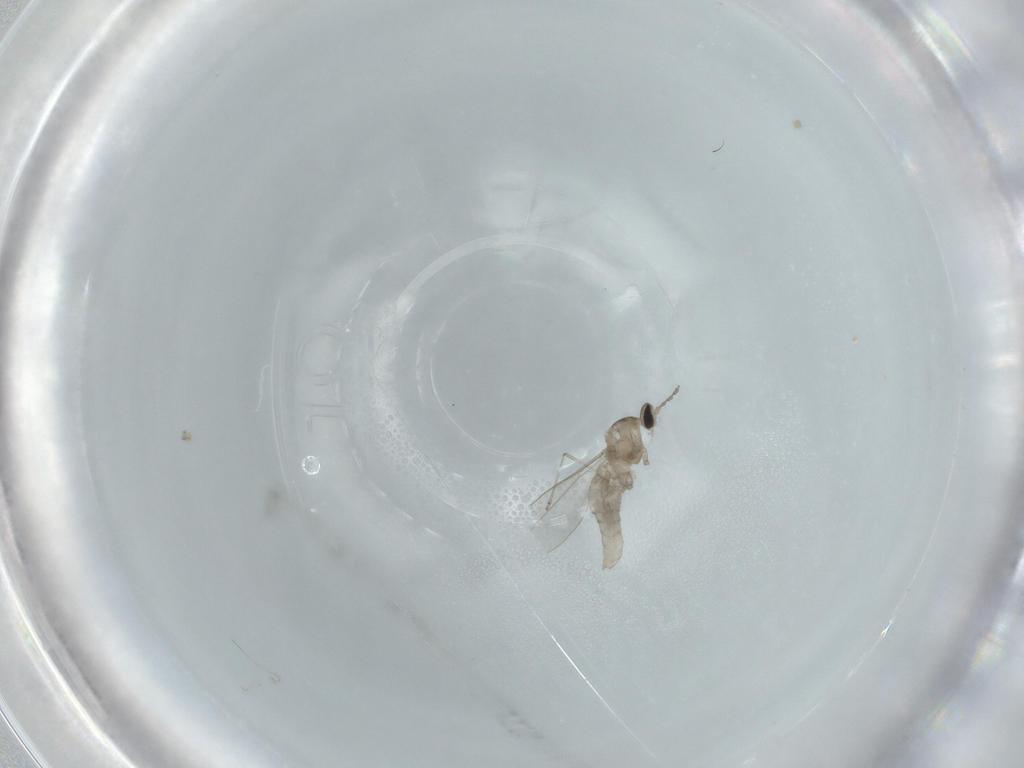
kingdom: Animalia
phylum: Arthropoda
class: Insecta
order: Diptera
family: Cecidomyiidae
